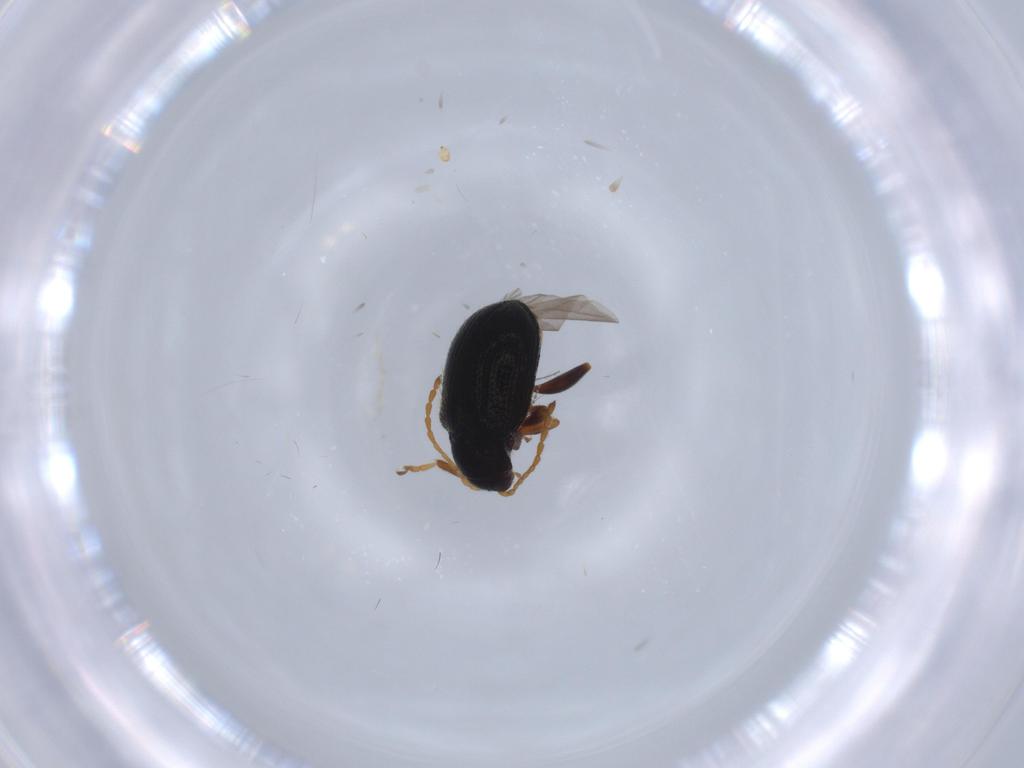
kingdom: Animalia
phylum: Arthropoda
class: Insecta
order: Coleoptera
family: Chrysomelidae
